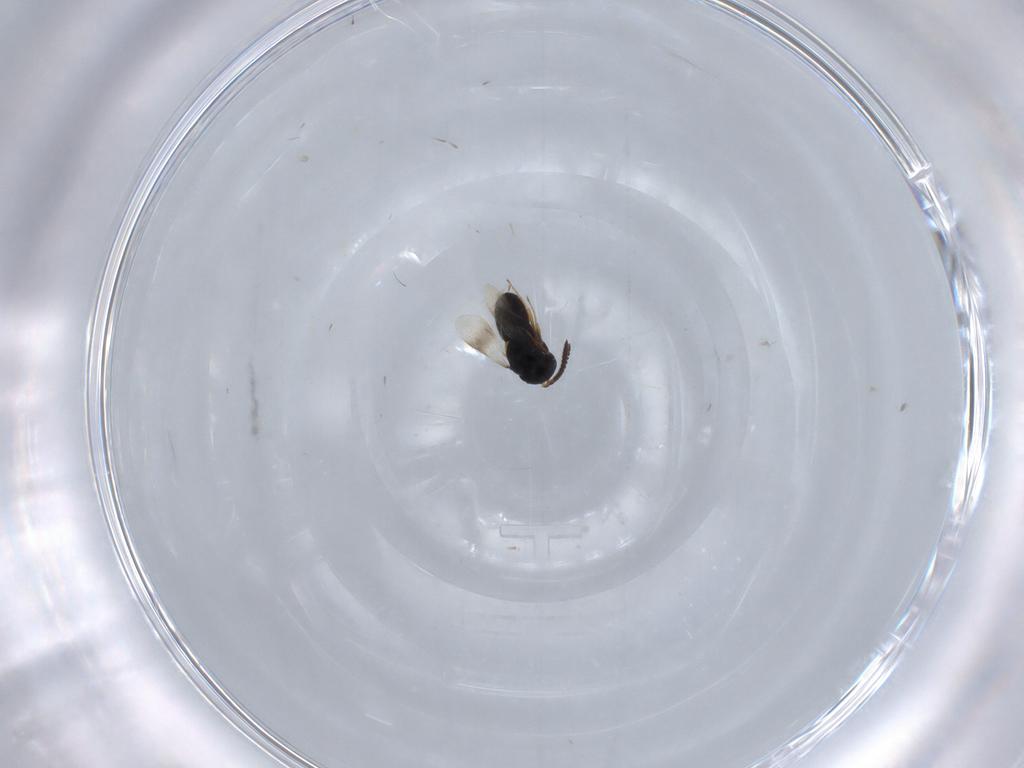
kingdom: Animalia
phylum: Arthropoda
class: Insecta
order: Hymenoptera
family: Scelionidae
